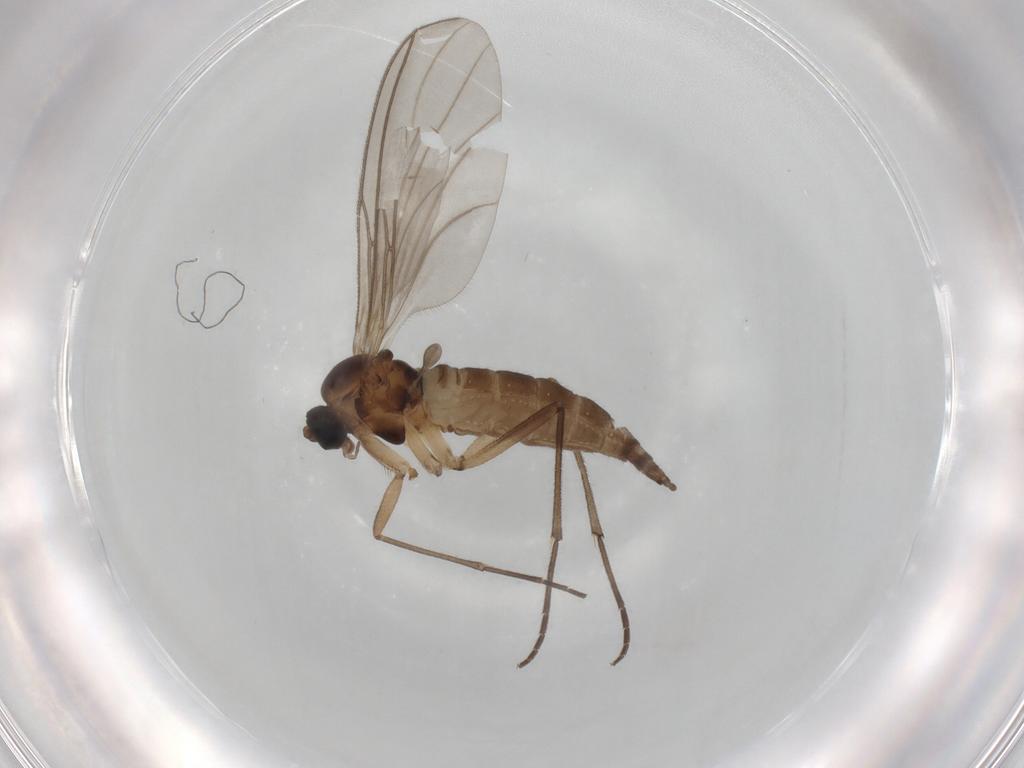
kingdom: Animalia
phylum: Arthropoda
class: Insecta
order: Diptera
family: Sciaridae
